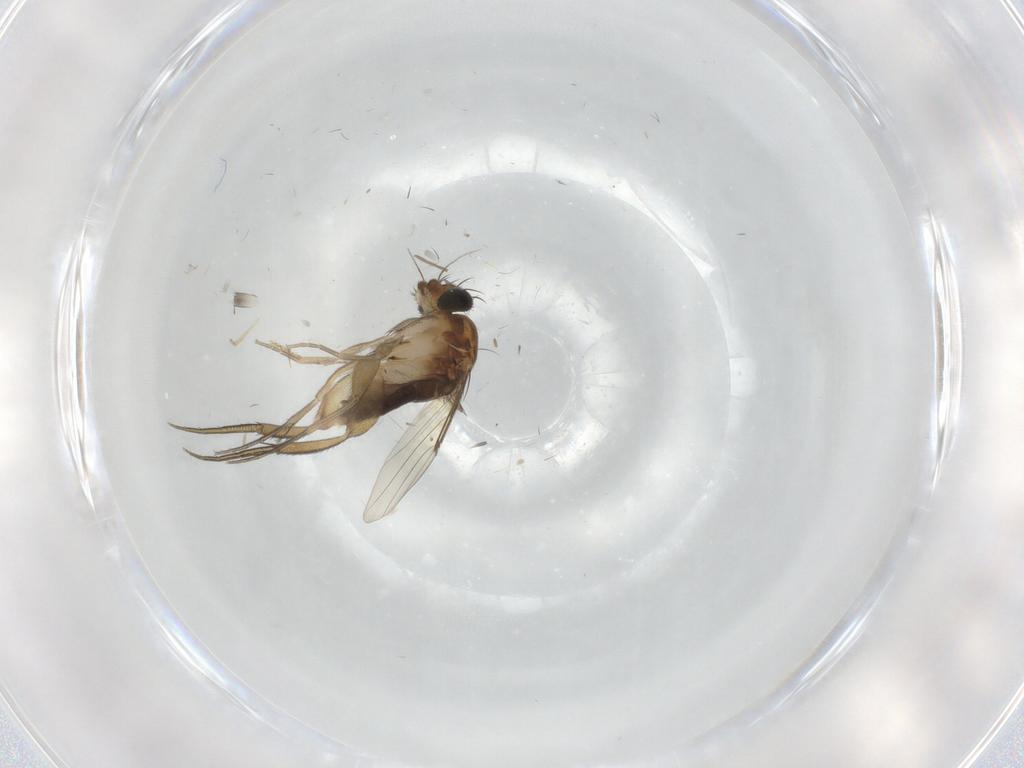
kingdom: Animalia
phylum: Arthropoda
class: Insecta
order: Diptera
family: Phoridae
